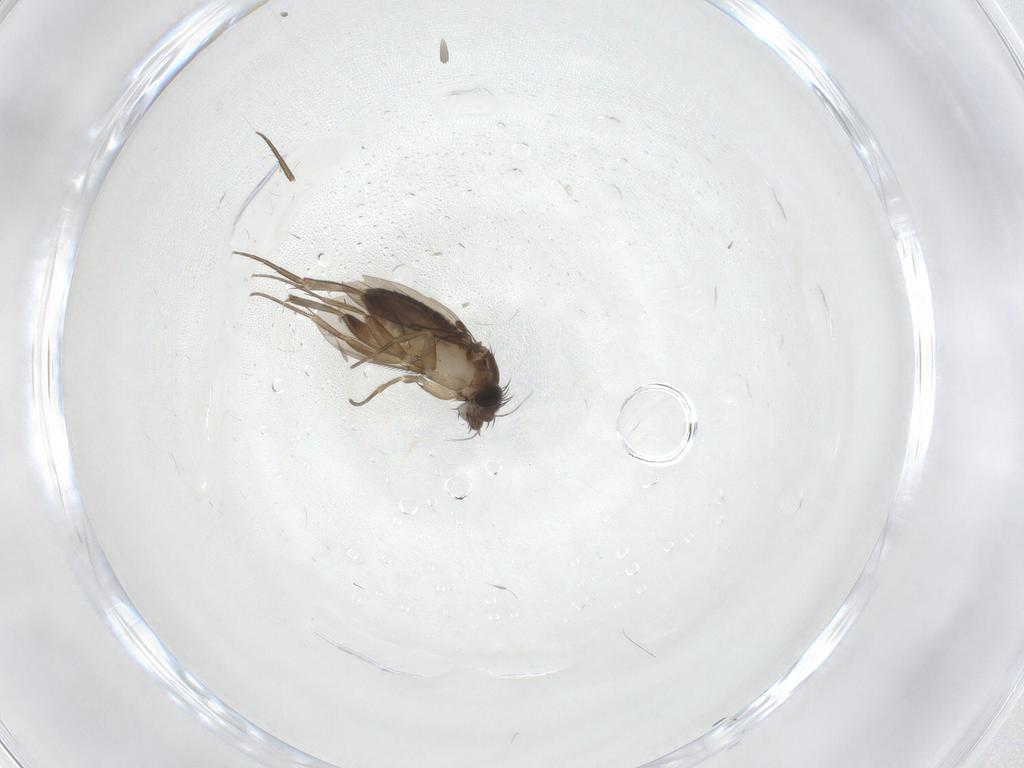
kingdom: Animalia
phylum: Arthropoda
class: Insecta
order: Diptera
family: Phoridae
